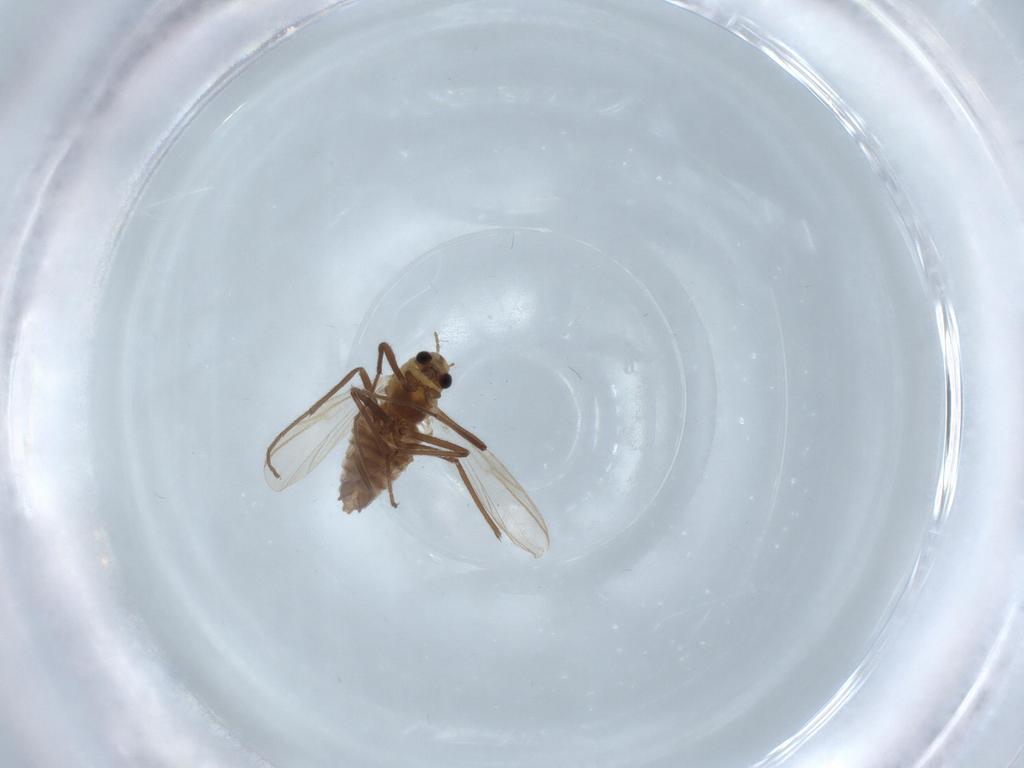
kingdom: Animalia
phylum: Arthropoda
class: Insecta
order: Diptera
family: Chironomidae
